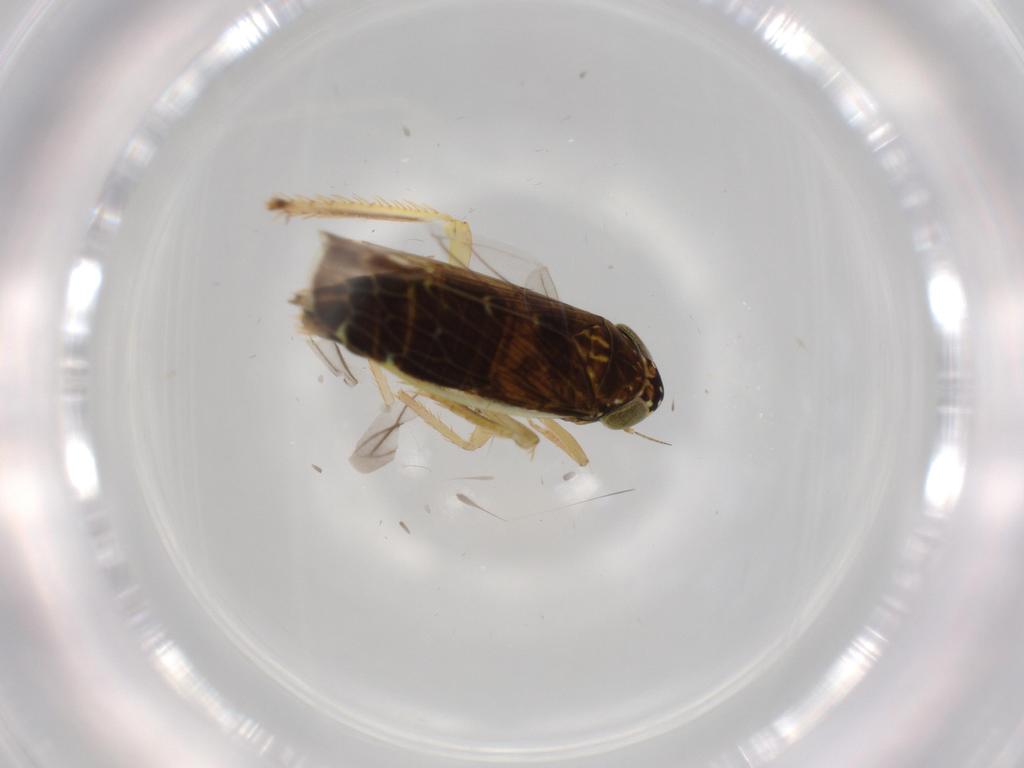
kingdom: Animalia
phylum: Arthropoda
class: Insecta
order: Hemiptera
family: Cicadellidae
